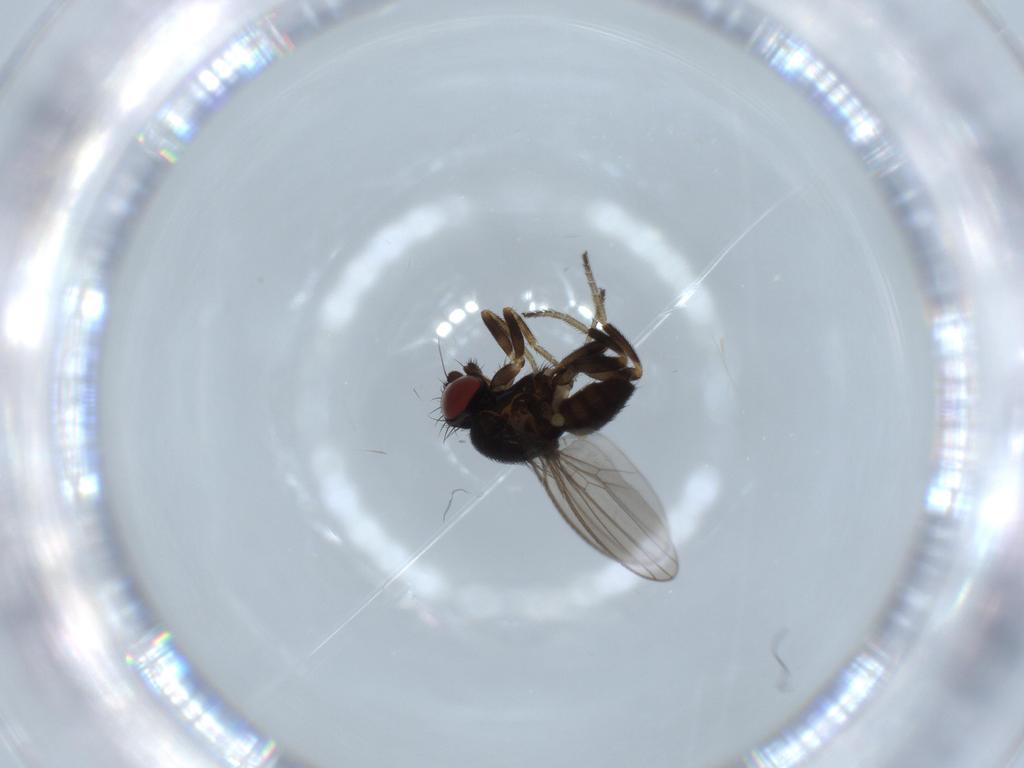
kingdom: Animalia
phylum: Arthropoda
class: Insecta
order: Diptera
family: Milichiidae
